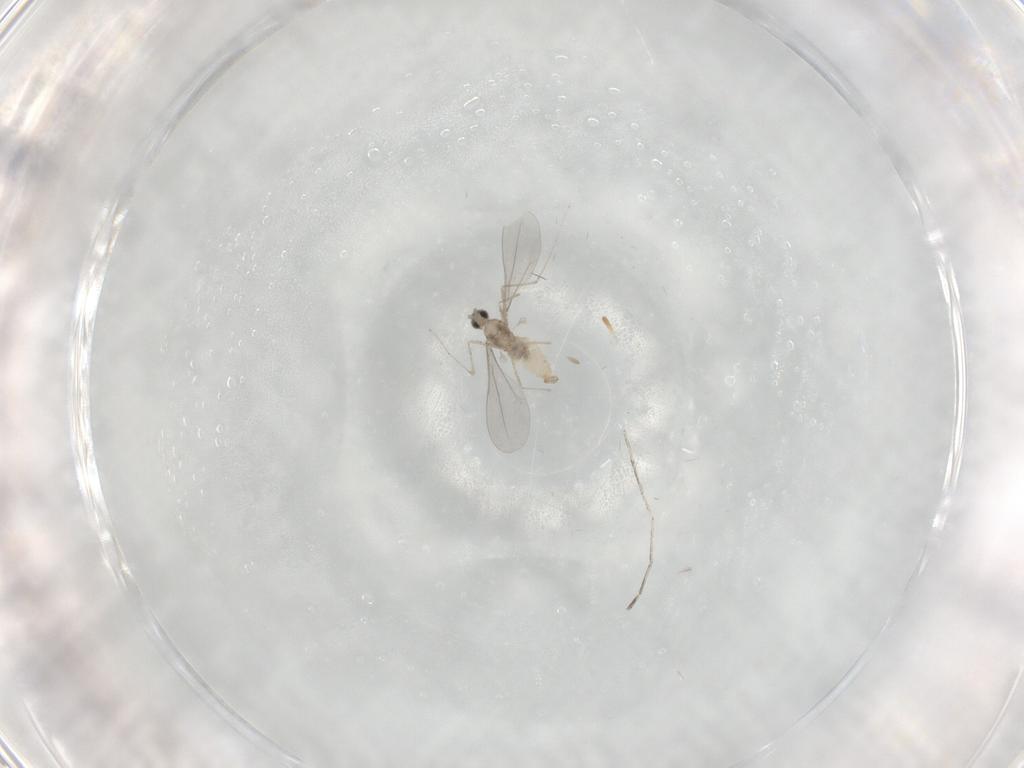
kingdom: Animalia
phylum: Arthropoda
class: Insecta
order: Diptera
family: Cecidomyiidae
